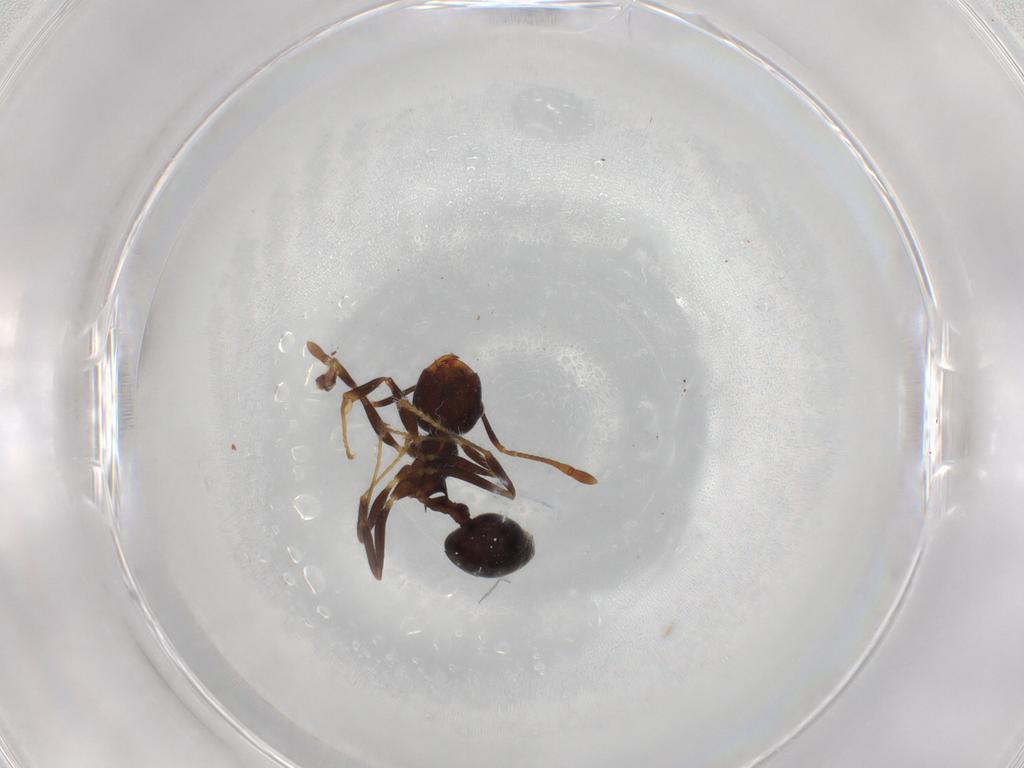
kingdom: Animalia
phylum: Arthropoda
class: Insecta
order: Hymenoptera
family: Formicidae
